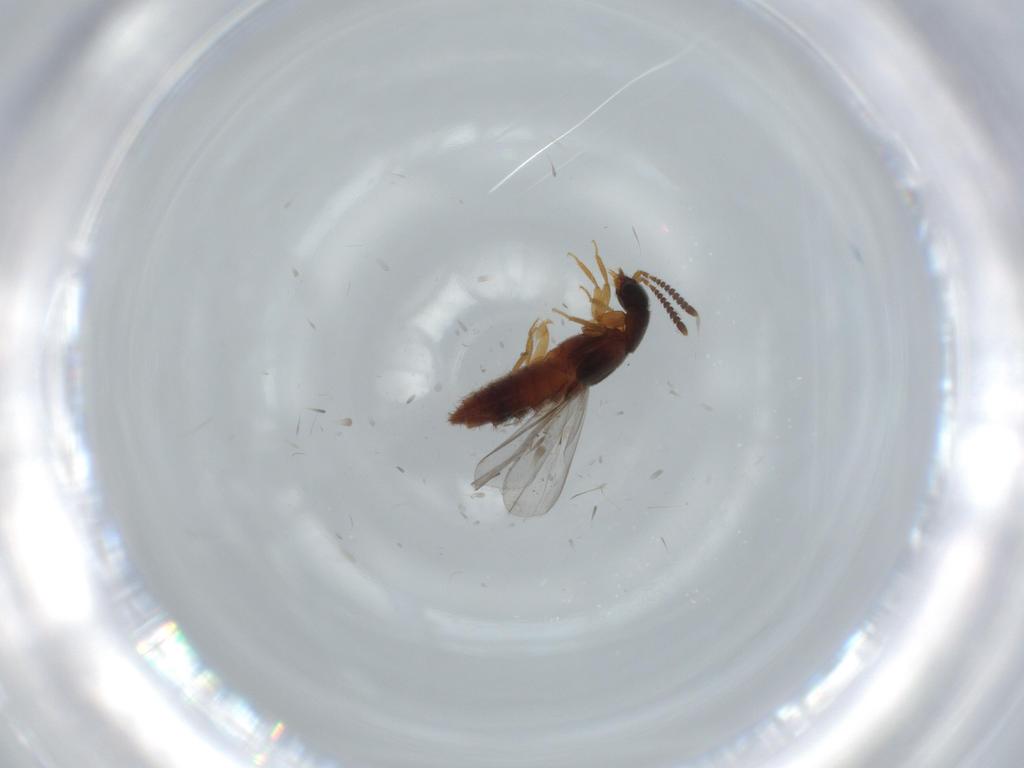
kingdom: Animalia
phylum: Arthropoda
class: Insecta
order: Coleoptera
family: Staphylinidae
